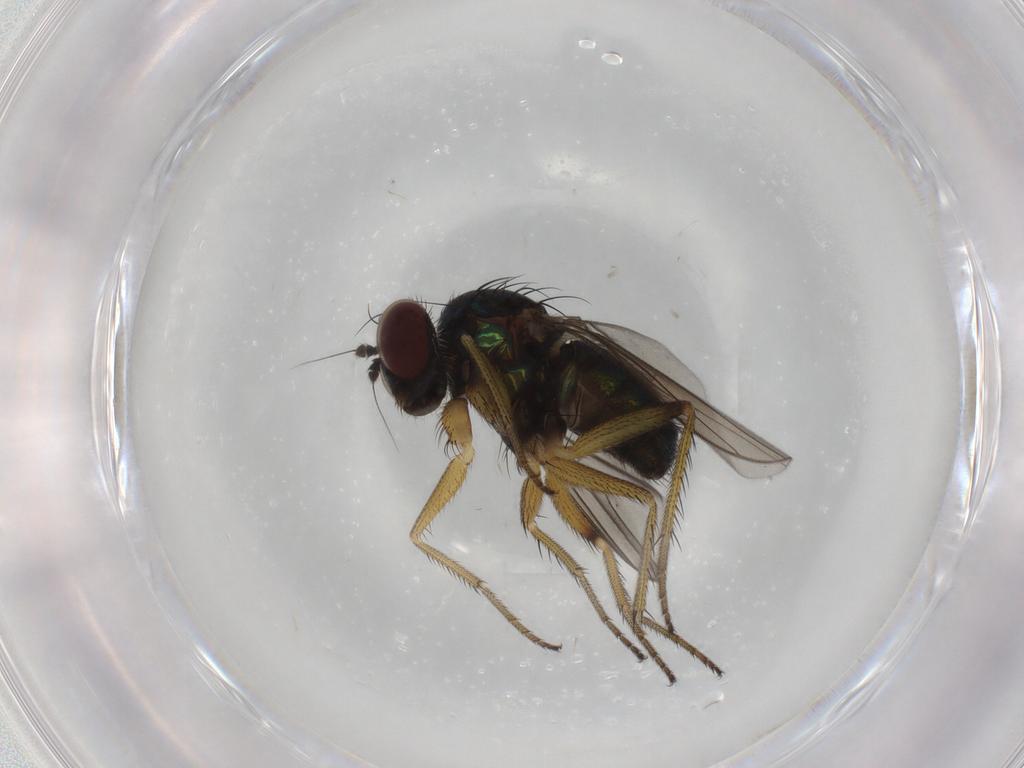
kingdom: Animalia
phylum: Arthropoda
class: Insecta
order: Diptera
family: Dolichopodidae
